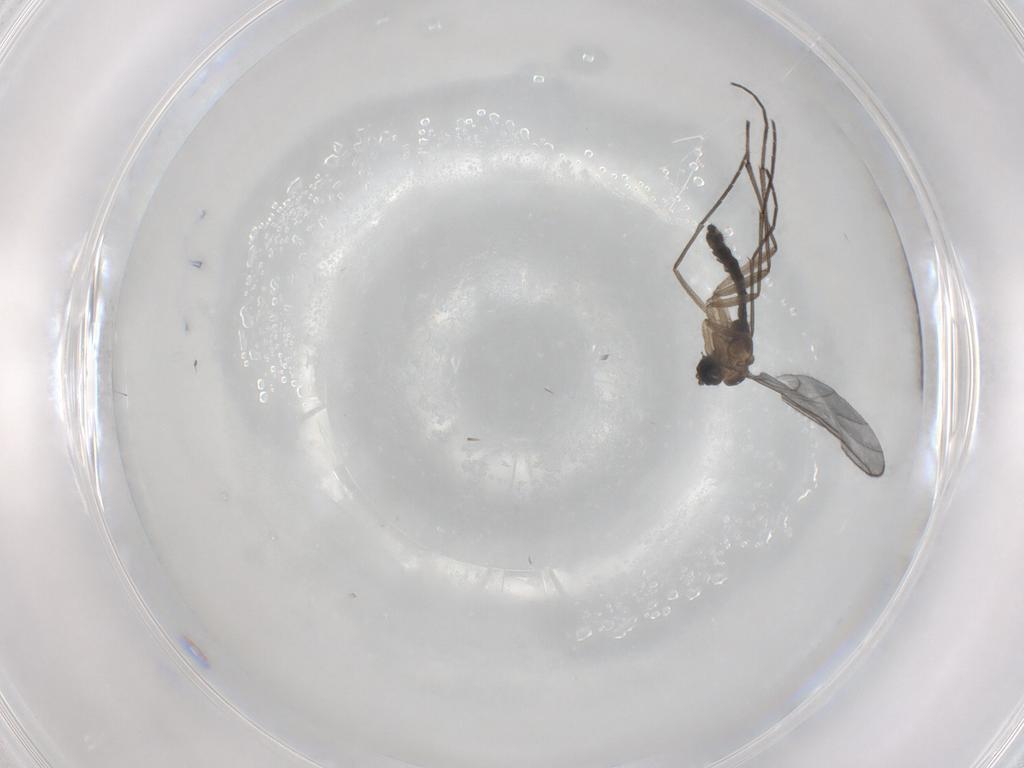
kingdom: Animalia
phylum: Arthropoda
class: Insecta
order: Diptera
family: Sciaridae
